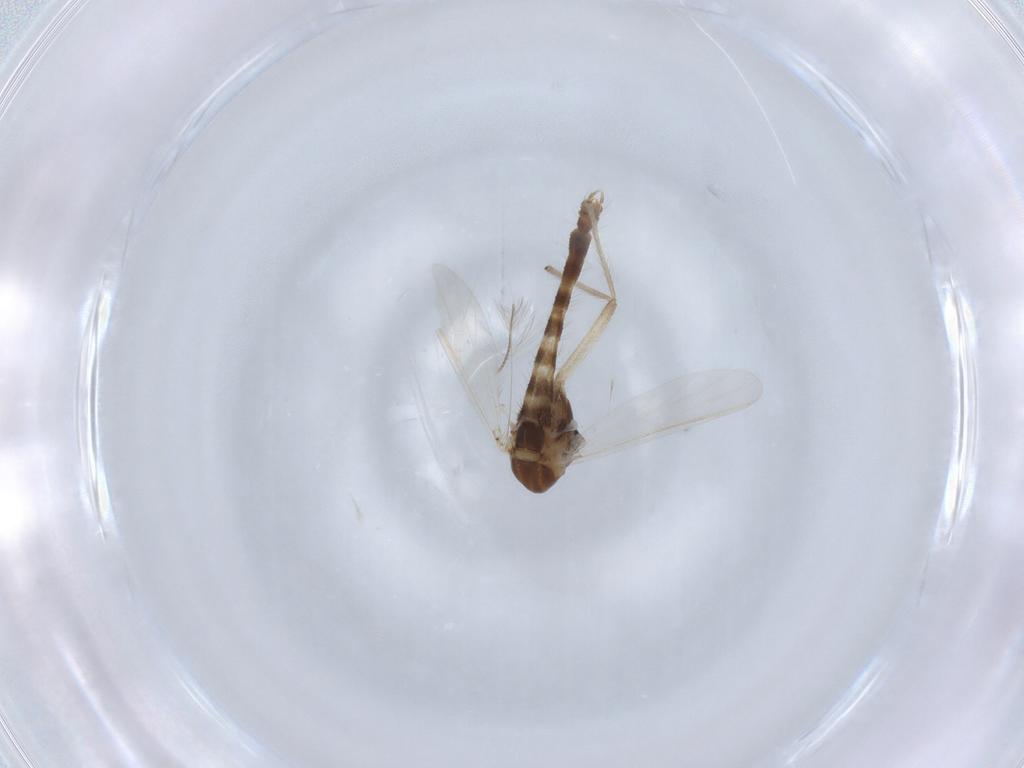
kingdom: Animalia
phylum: Arthropoda
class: Insecta
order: Diptera
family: Chironomidae
